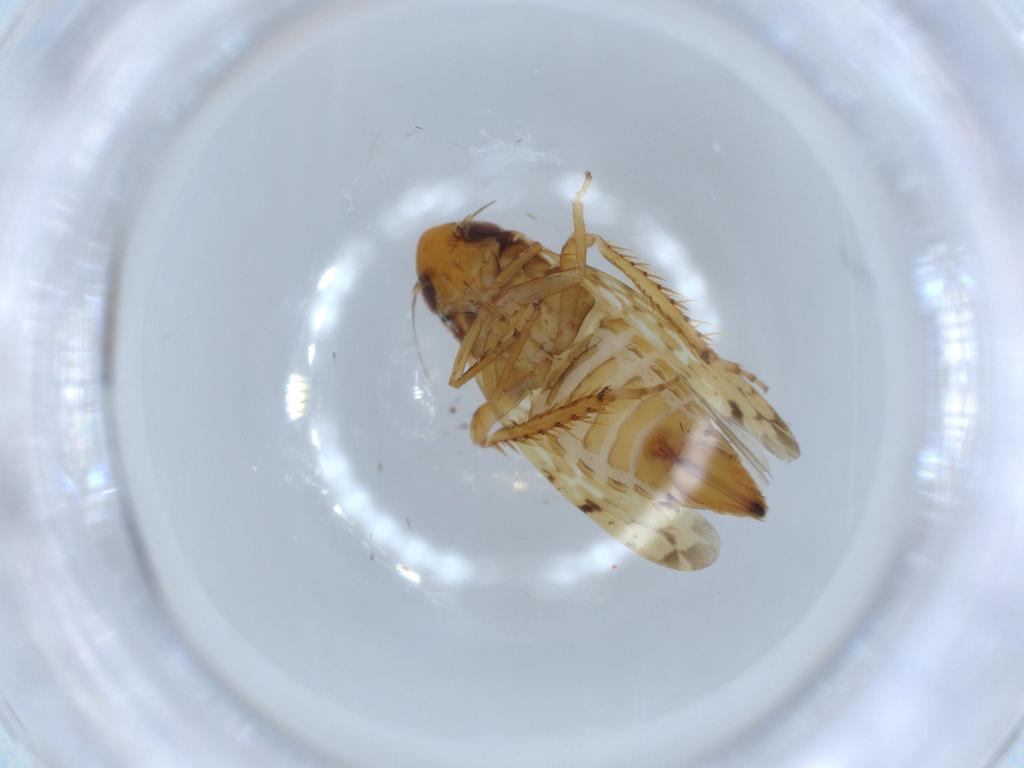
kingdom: Animalia
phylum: Arthropoda
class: Insecta
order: Hemiptera
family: Cicadellidae
